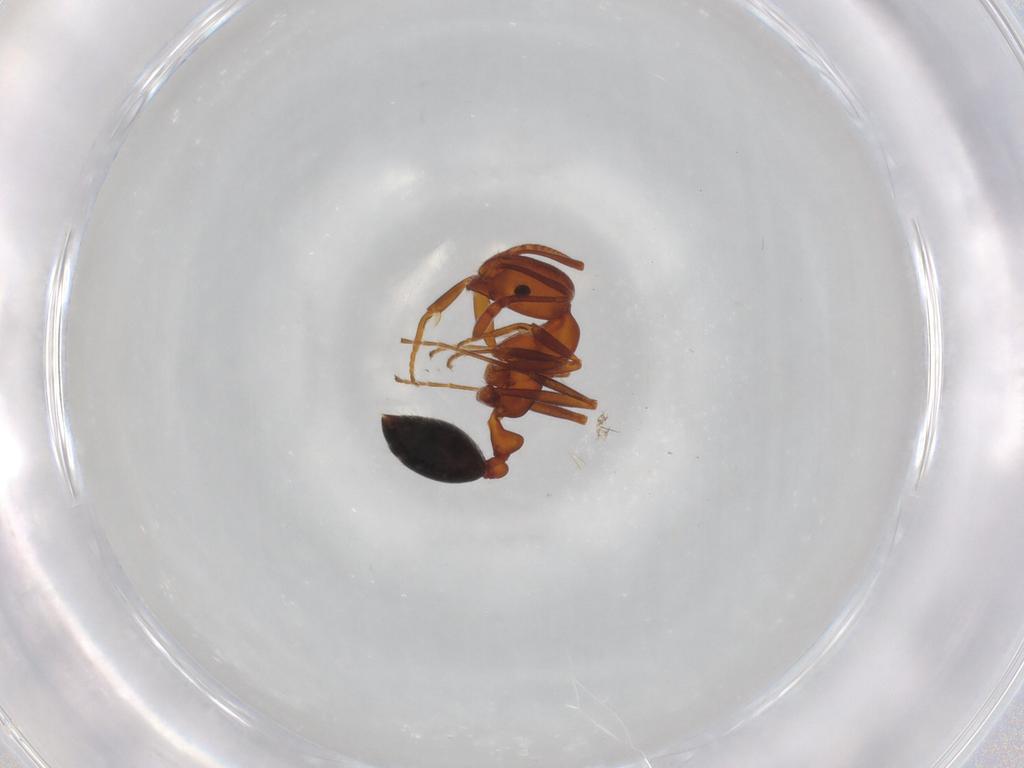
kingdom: Animalia
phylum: Arthropoda
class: Insecta
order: Hymenoptera
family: Formicidae
